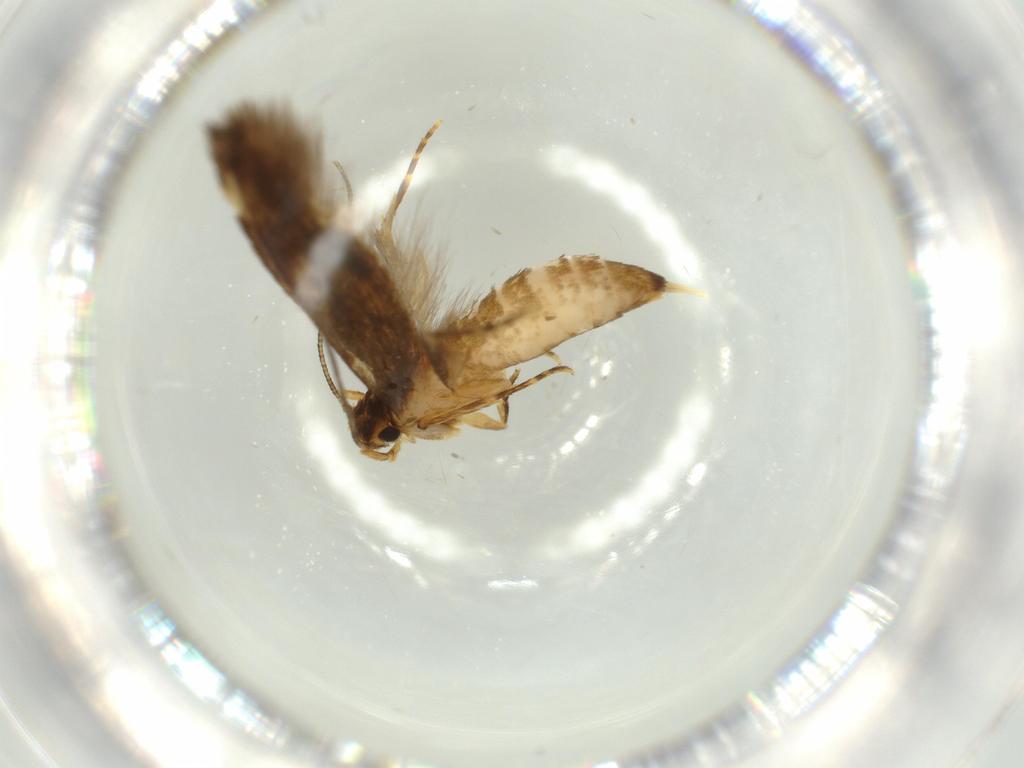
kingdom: Animalia
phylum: Arthropoda
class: Insecta
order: Lepidoptera
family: Tineidae
